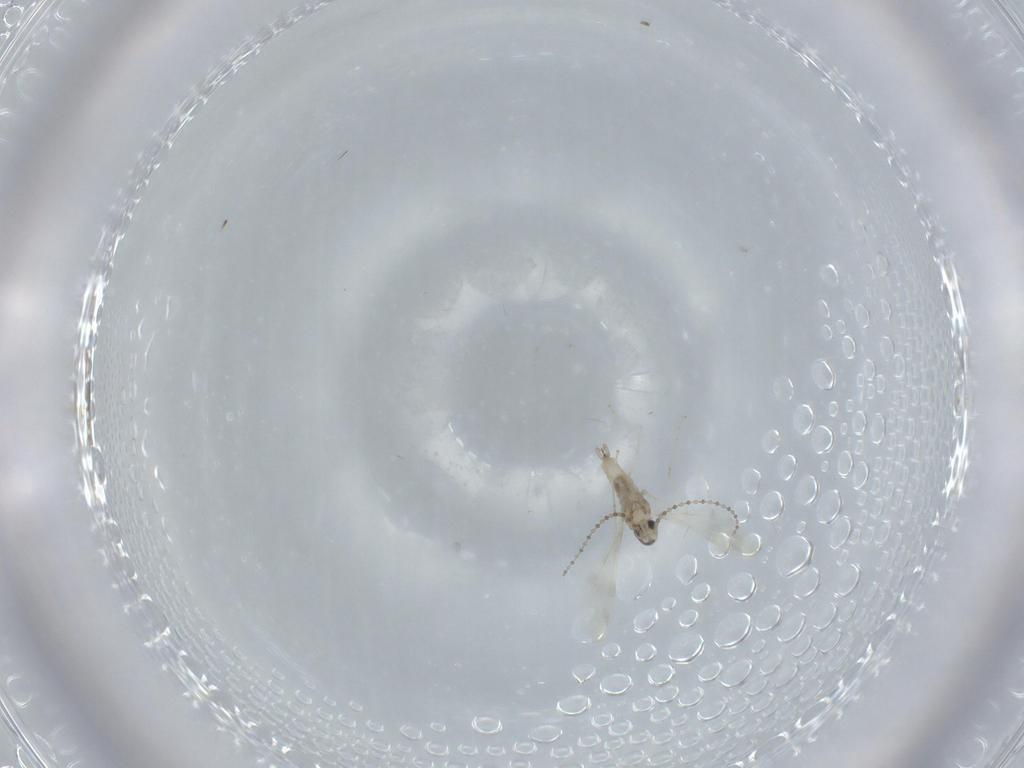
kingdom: Animalia
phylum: Arthropoda
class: Insecta
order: Diptera
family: Cecidomyiidae
